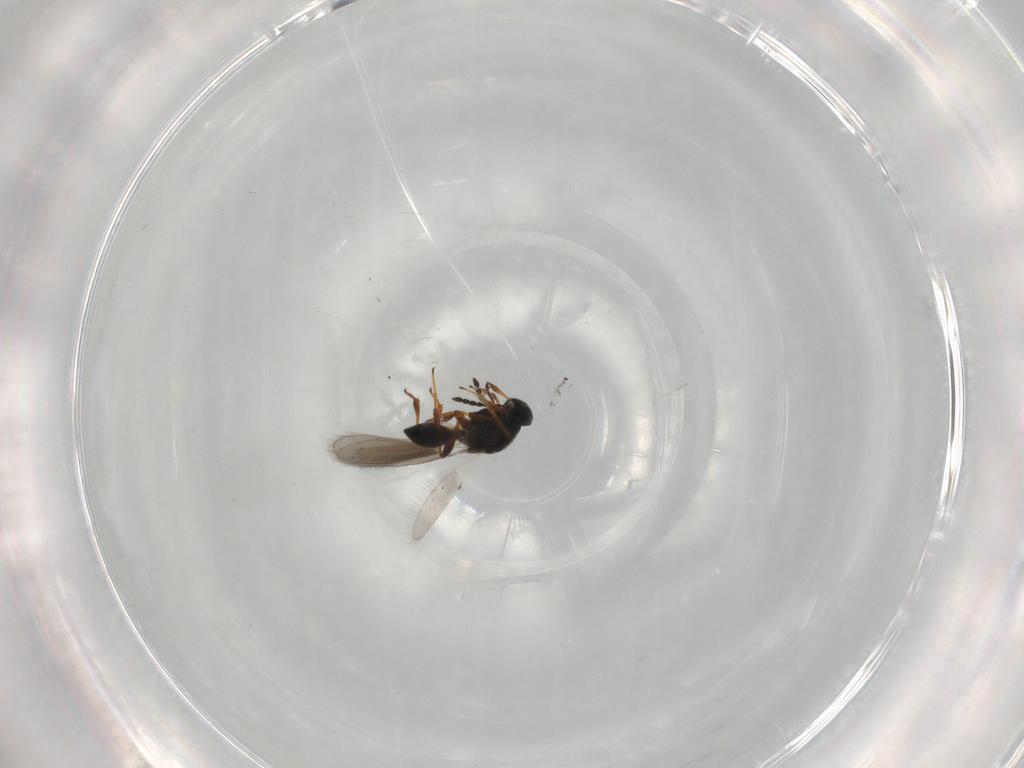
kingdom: Animalia
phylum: Arthropoda
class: Insecta
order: Hymenoptera
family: Platygastridae
